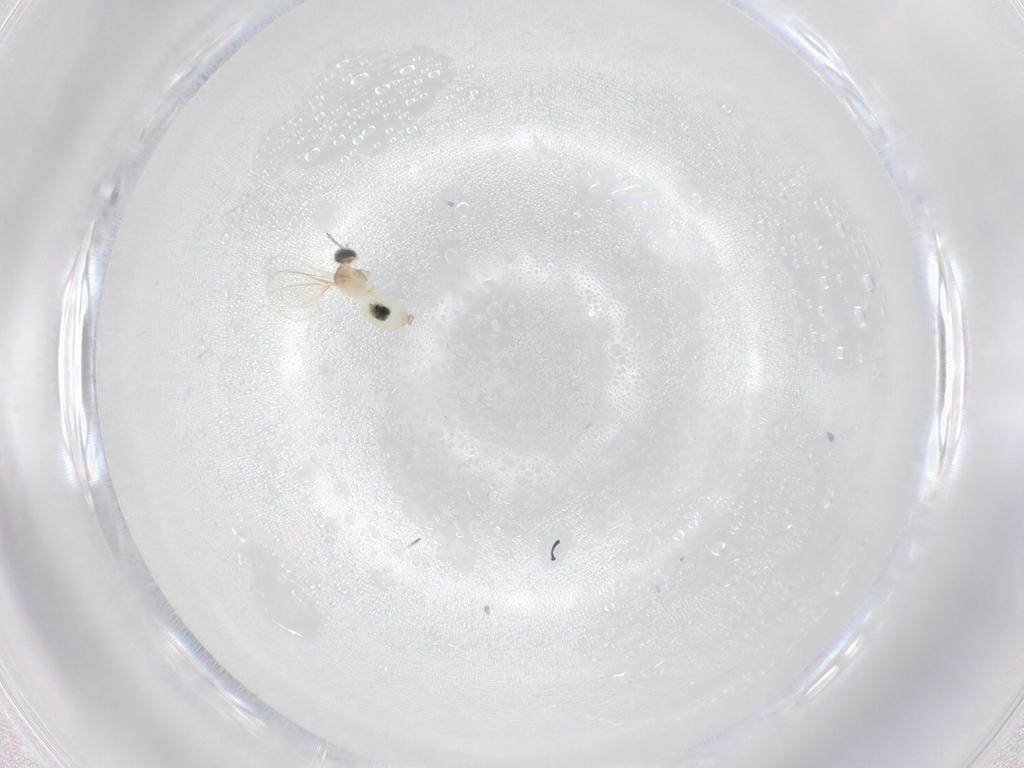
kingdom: Animalia
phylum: Arthropoda
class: Insecta
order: Diptera
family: Cecidomyiidae
